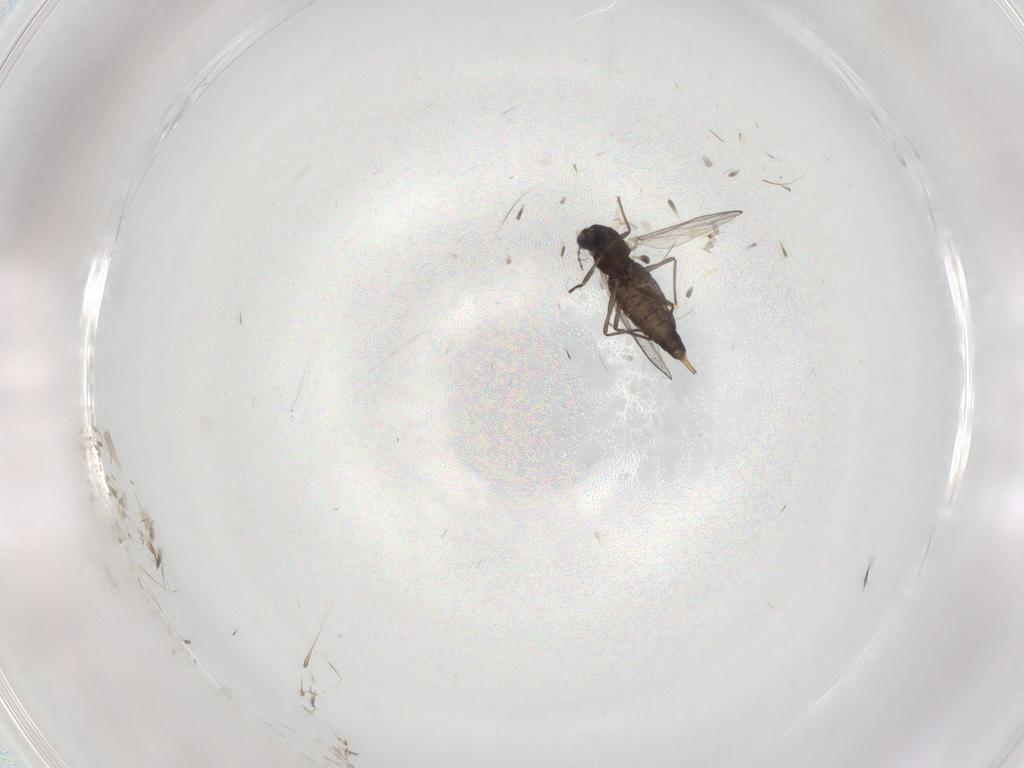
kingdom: Animalia
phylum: Arthropoda
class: Insecta
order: Diptera
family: Chironomidae
